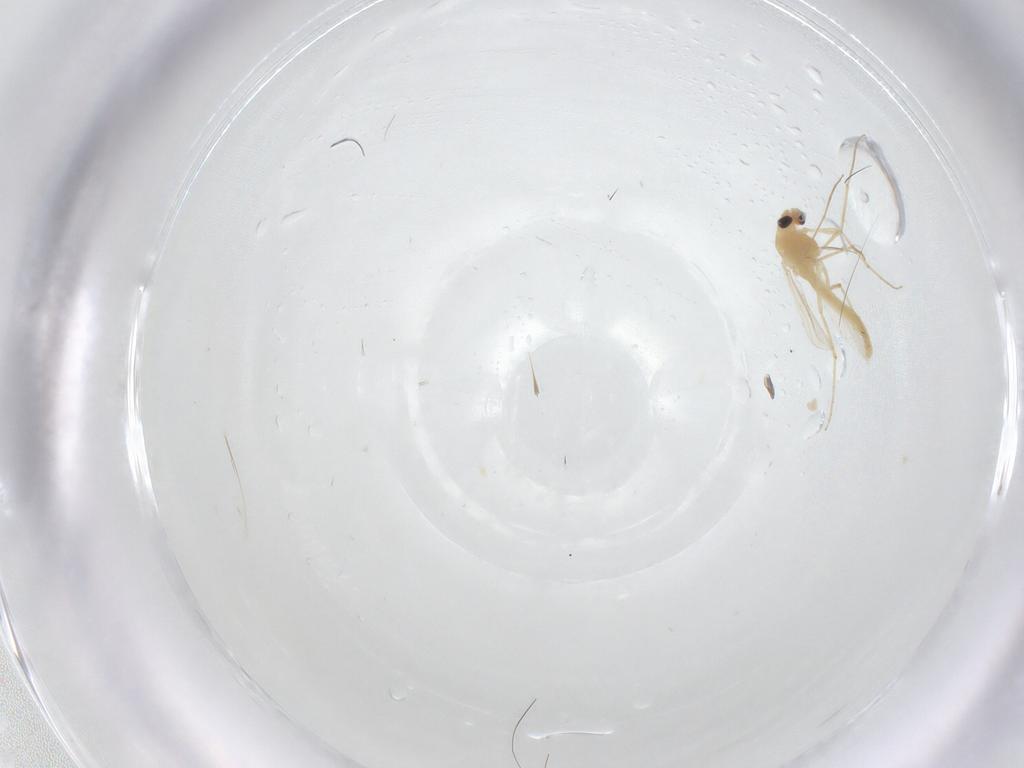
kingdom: Animalia
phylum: Arthropoda
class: Insecta
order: Diptera
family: Chironomidae
